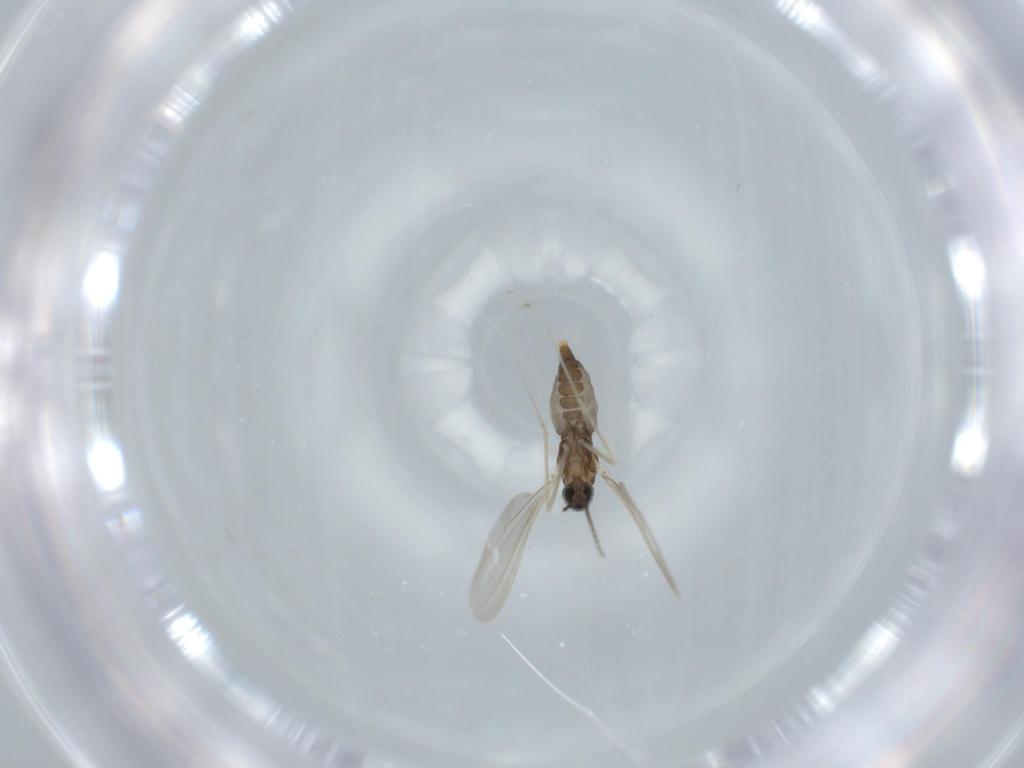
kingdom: Animalia
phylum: Arthropoda
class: Insecta
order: Diptera
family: Cecidomyiidae
